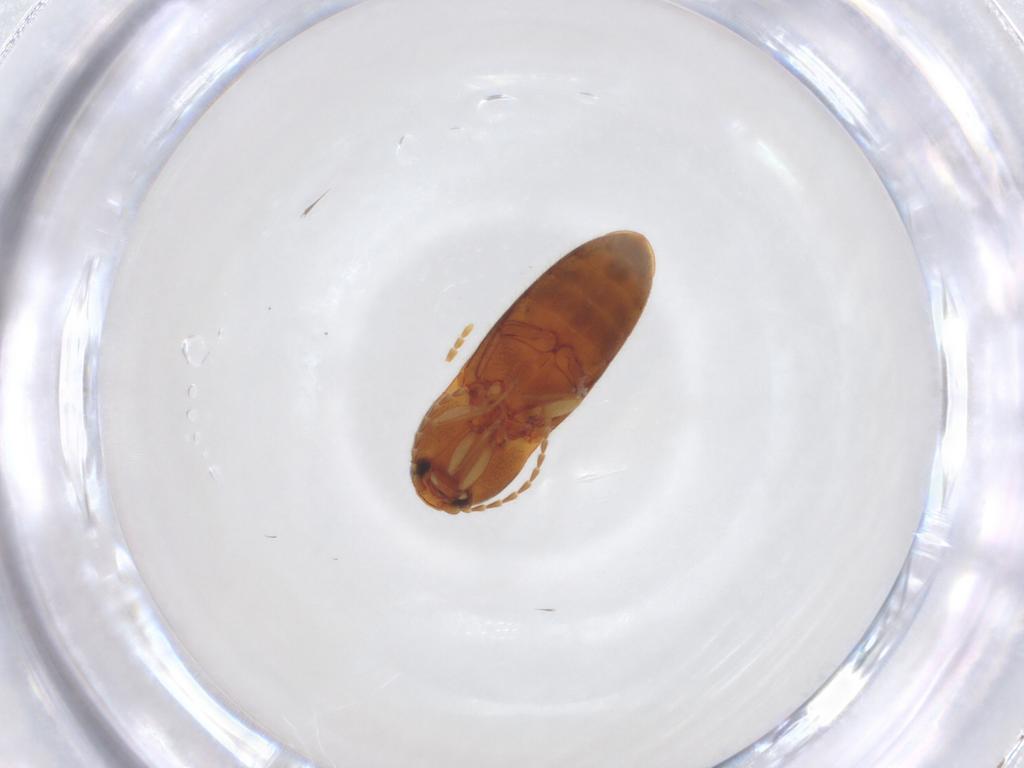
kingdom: Animalia
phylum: Arthropoda
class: Insecta
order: Coleoptera
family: Elateridae
